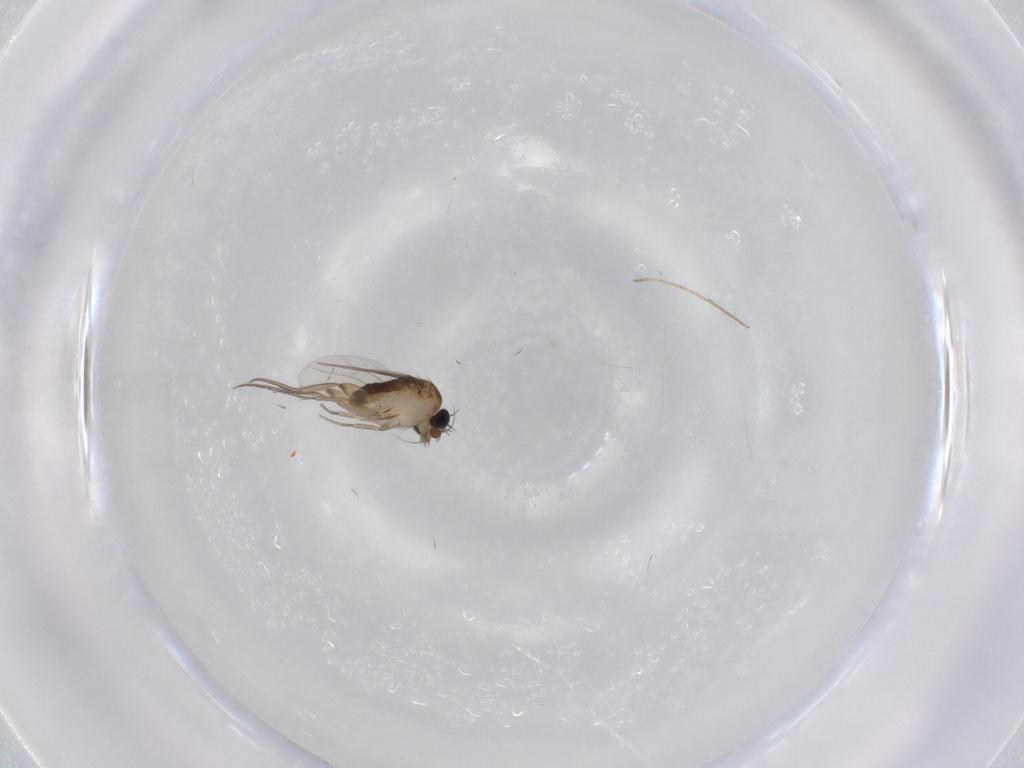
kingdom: Animalia
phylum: Arthropoda
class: Insecta
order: Diptera
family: Phoridae
